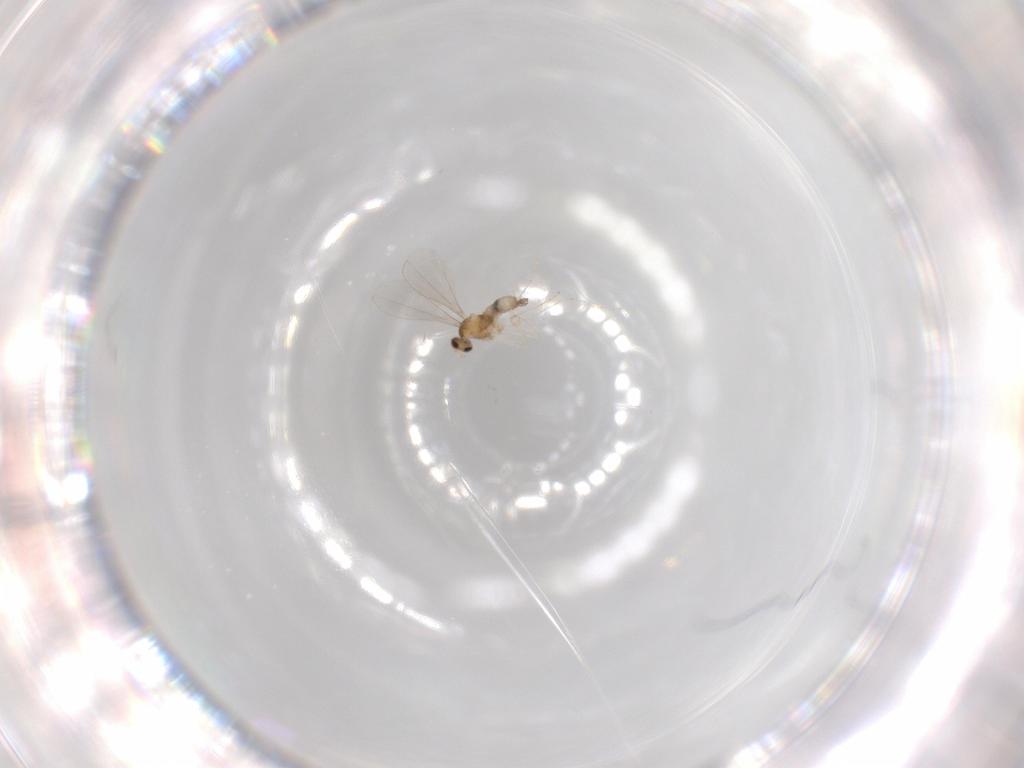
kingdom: Animalia
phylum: Arthropoda
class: Insecta
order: Diptera
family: Cecidomyiidae
